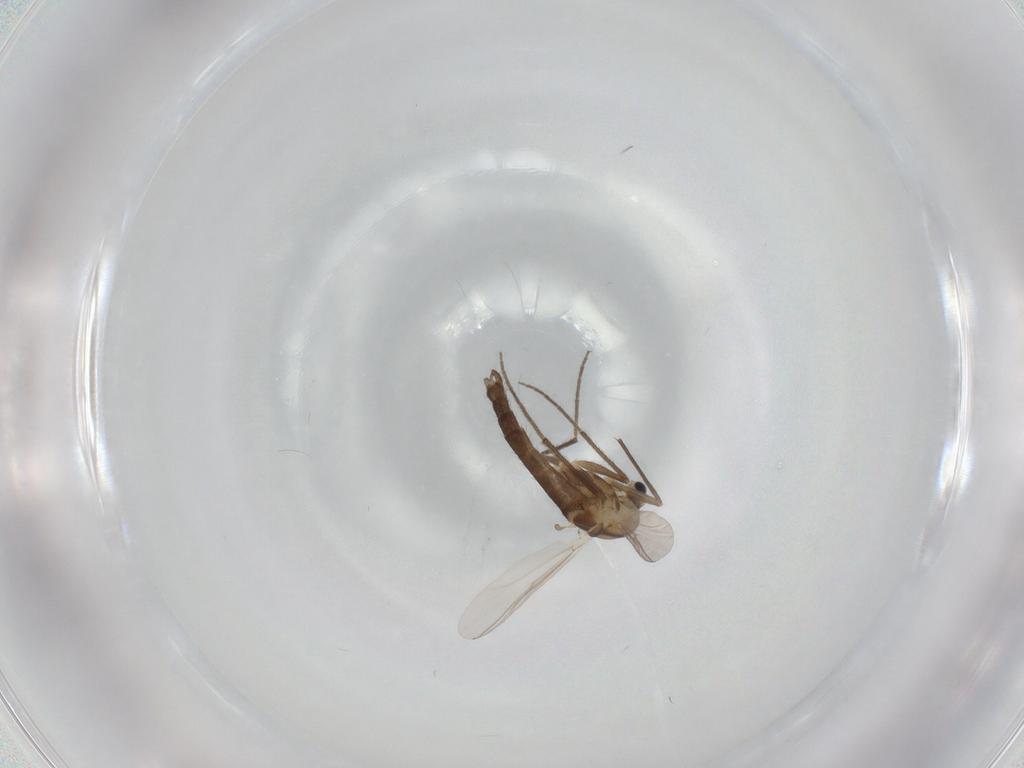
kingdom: Animalia
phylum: Arthropoda
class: Insecta
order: Diptera
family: Chironomidae
